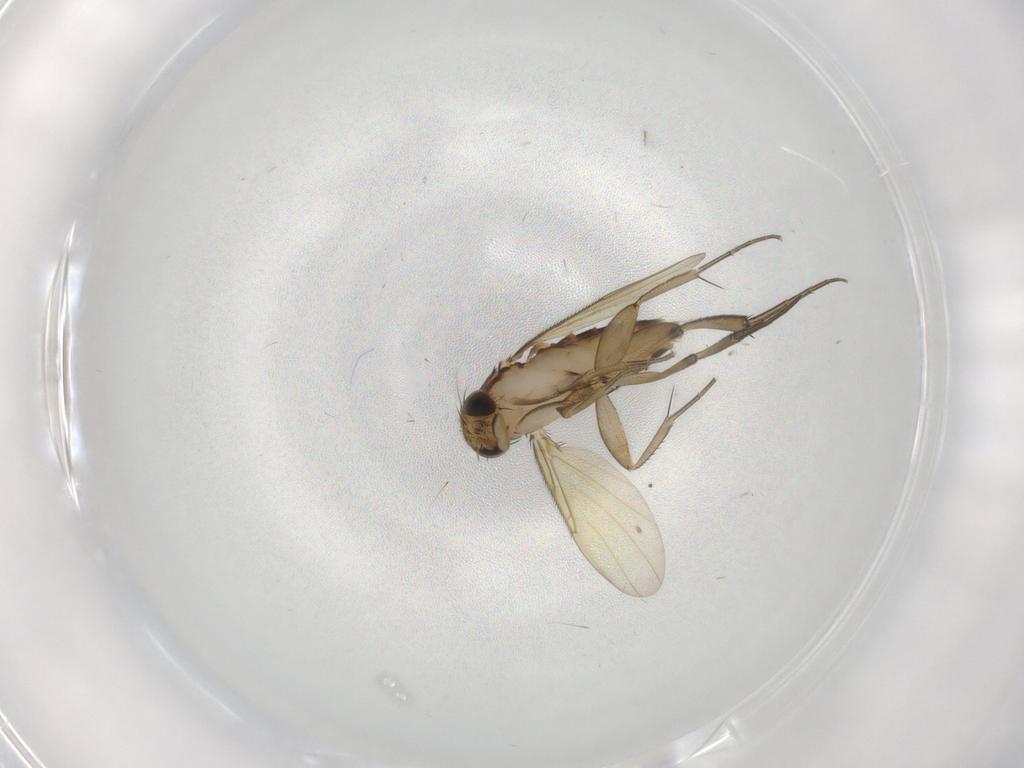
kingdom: Animalia
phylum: Arthropoda
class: Insecta
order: Diptera
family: Phoridae
